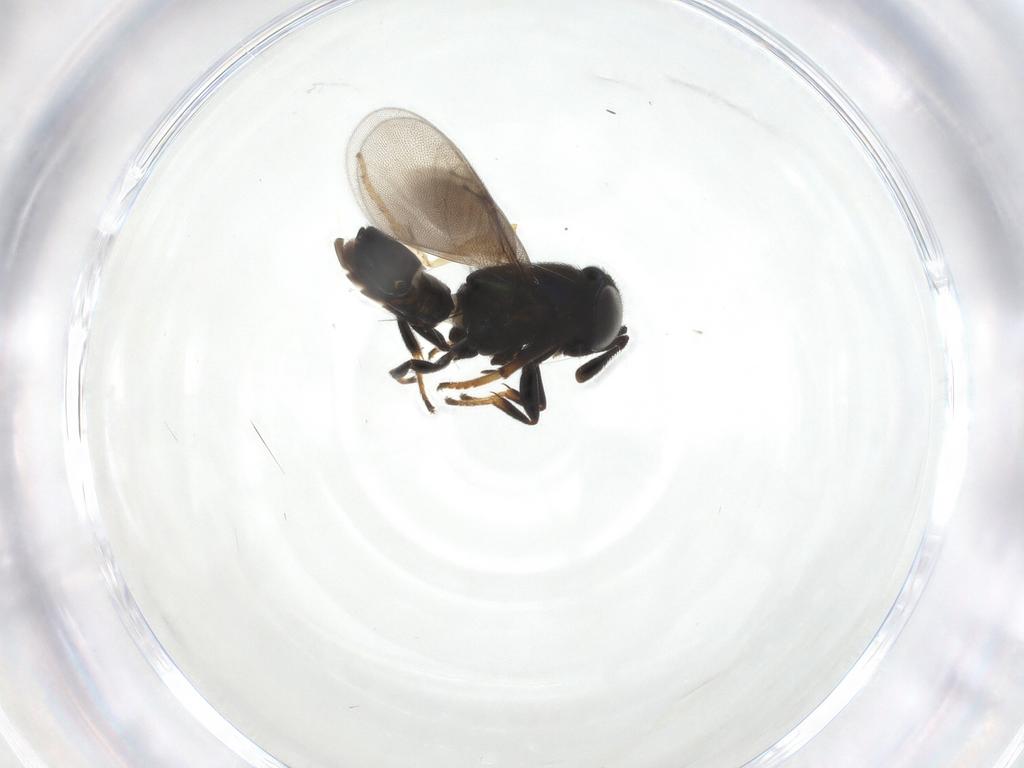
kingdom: Animalia
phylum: Arthropoda
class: Insecta
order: Hymenoptera
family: Encyrtidae
